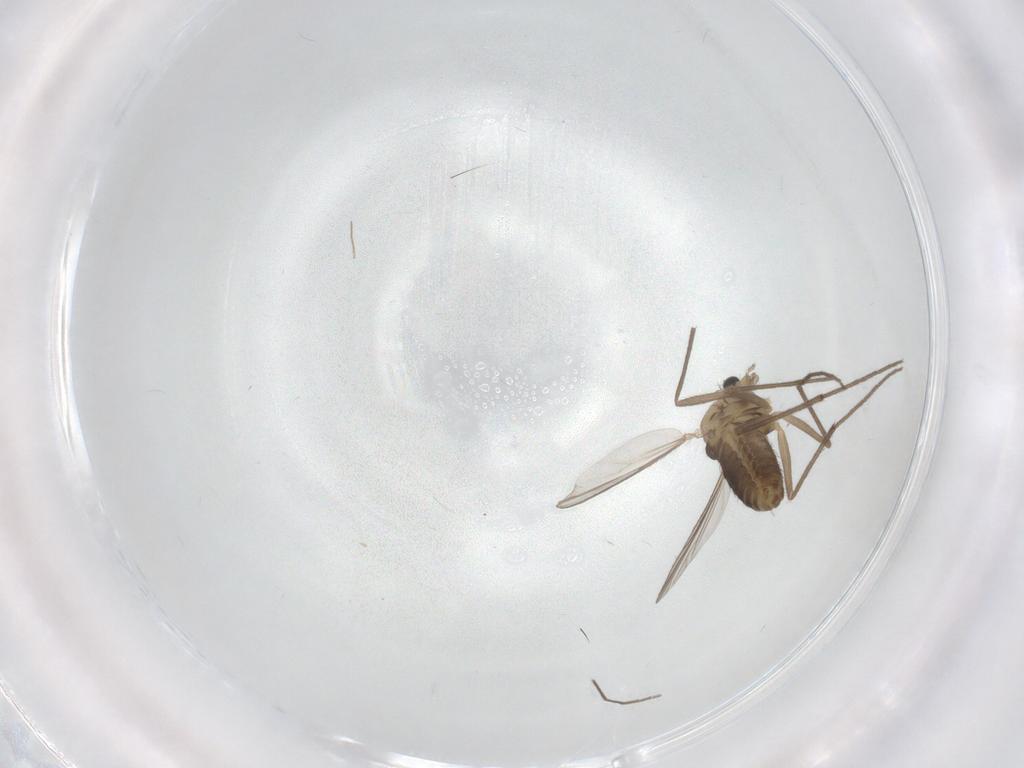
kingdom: Animalia
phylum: Arthropoda
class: Insecta
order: Diptera
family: Chironomidae
